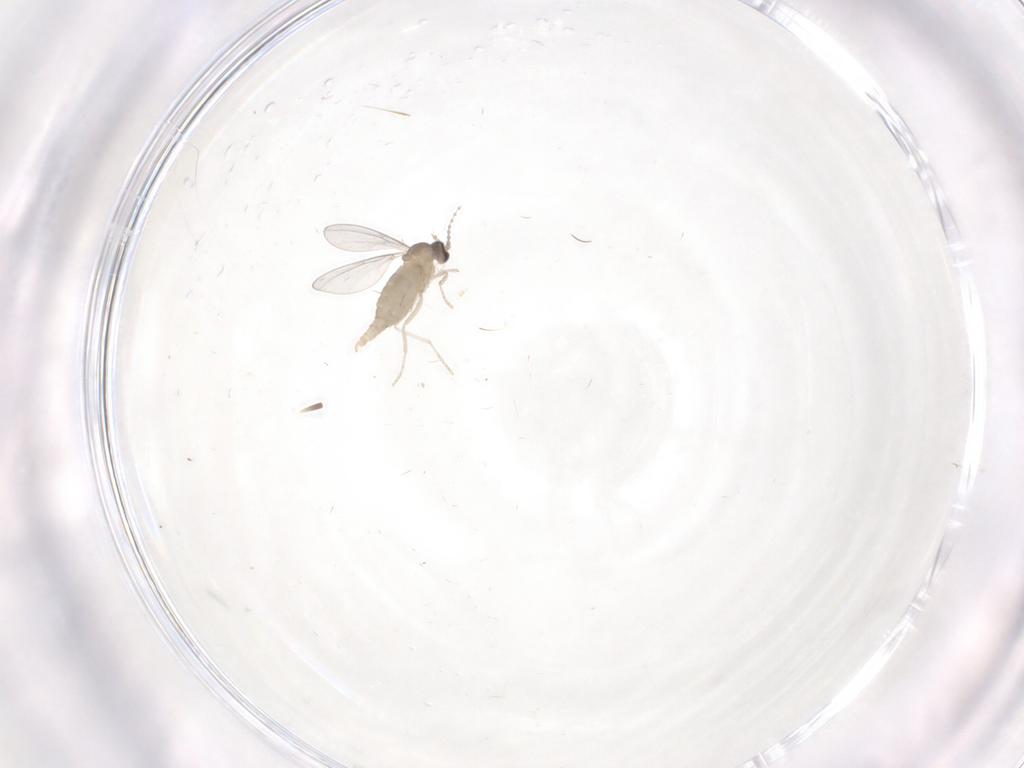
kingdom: Animalia
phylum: Arthropoda
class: Insecta
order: Diptera
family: Cecidomyiidae
